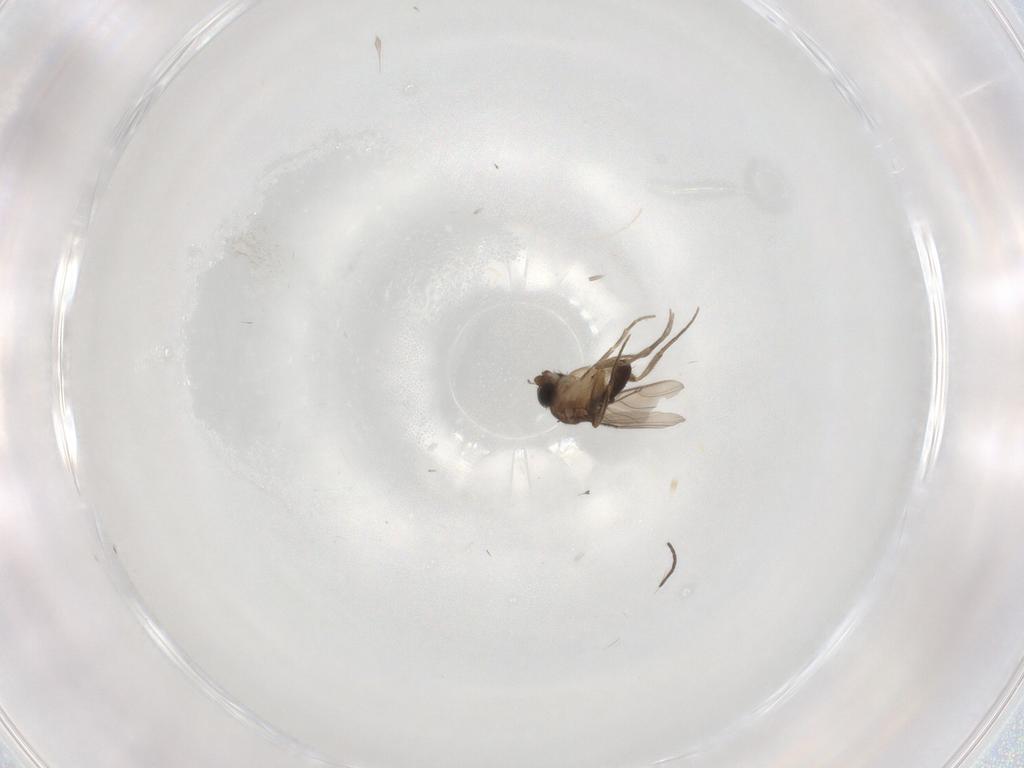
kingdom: Animalia
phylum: Arthropoda
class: Insecta
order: Diptera
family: Phoridae
